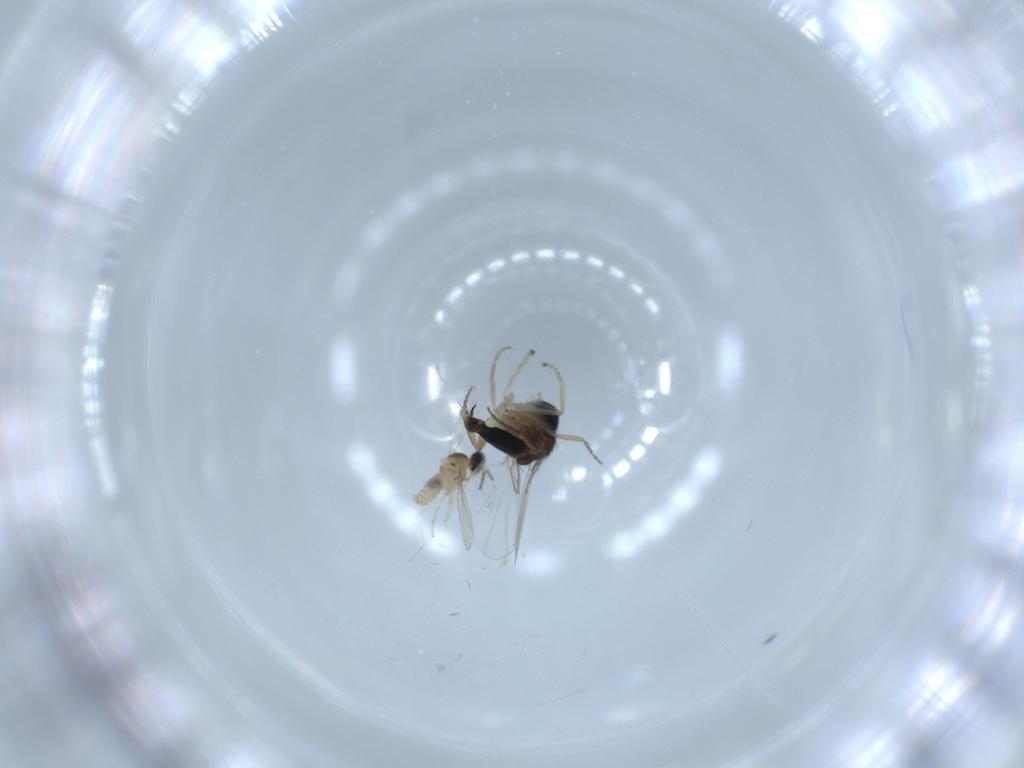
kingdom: Animalia
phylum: Arthropoda
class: Insecta
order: Diptera
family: Cecidomyiidae
